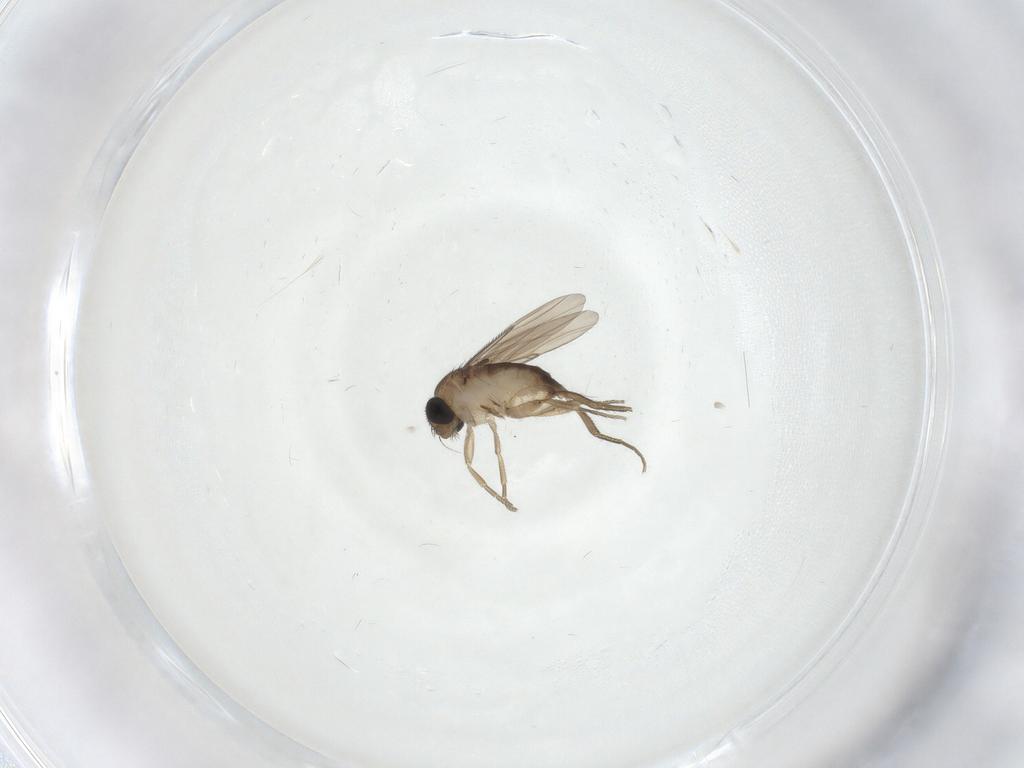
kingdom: Animalia
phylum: Arthropoda
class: Insecta
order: Diptera
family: Phoridae
